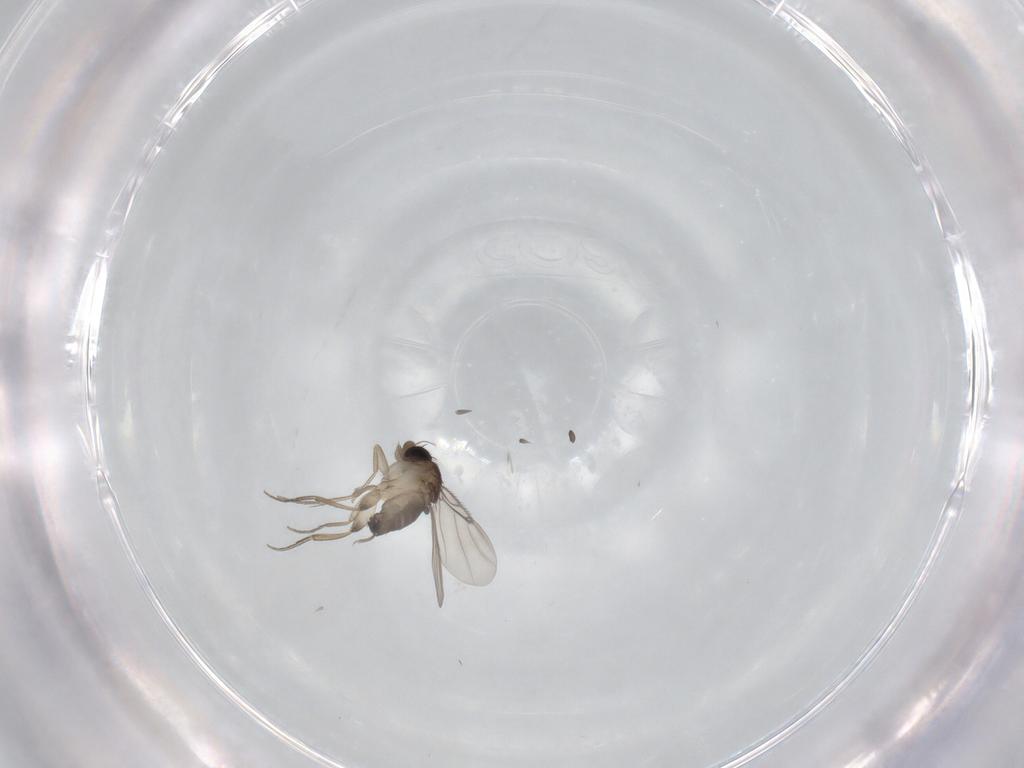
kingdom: Animalia
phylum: Arthropoda
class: Insecta
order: Diptera
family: Phoridae
